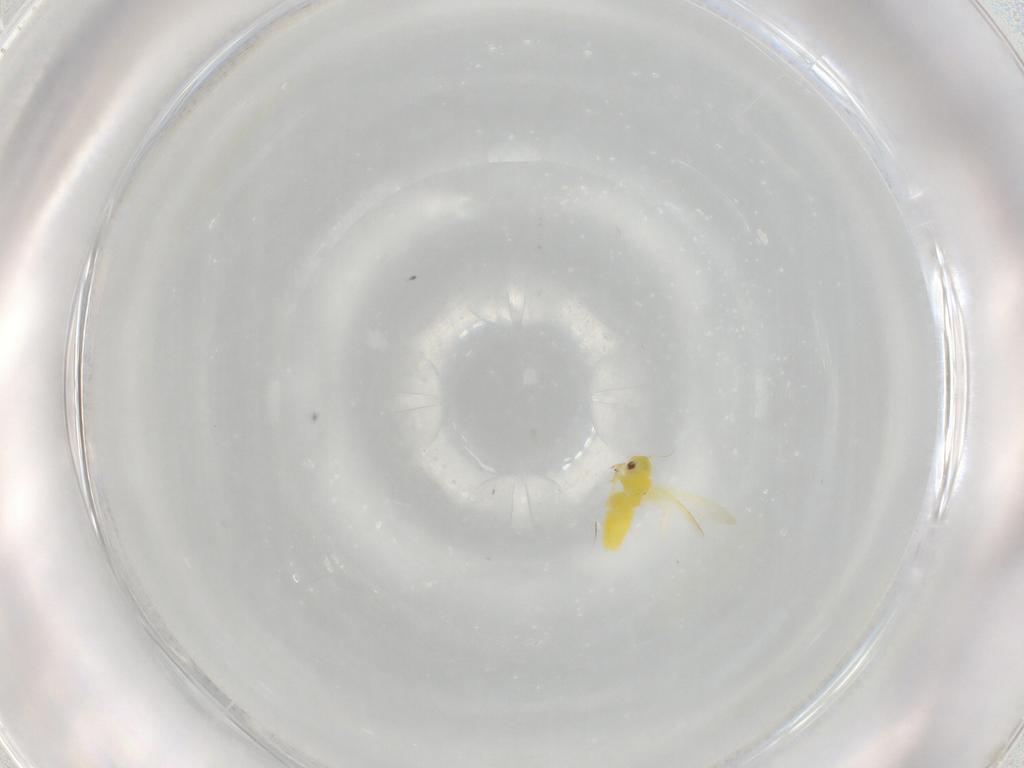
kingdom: Animalia
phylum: Arthropoda
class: Insecta
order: Hemiptera
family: Aleyrodidae
